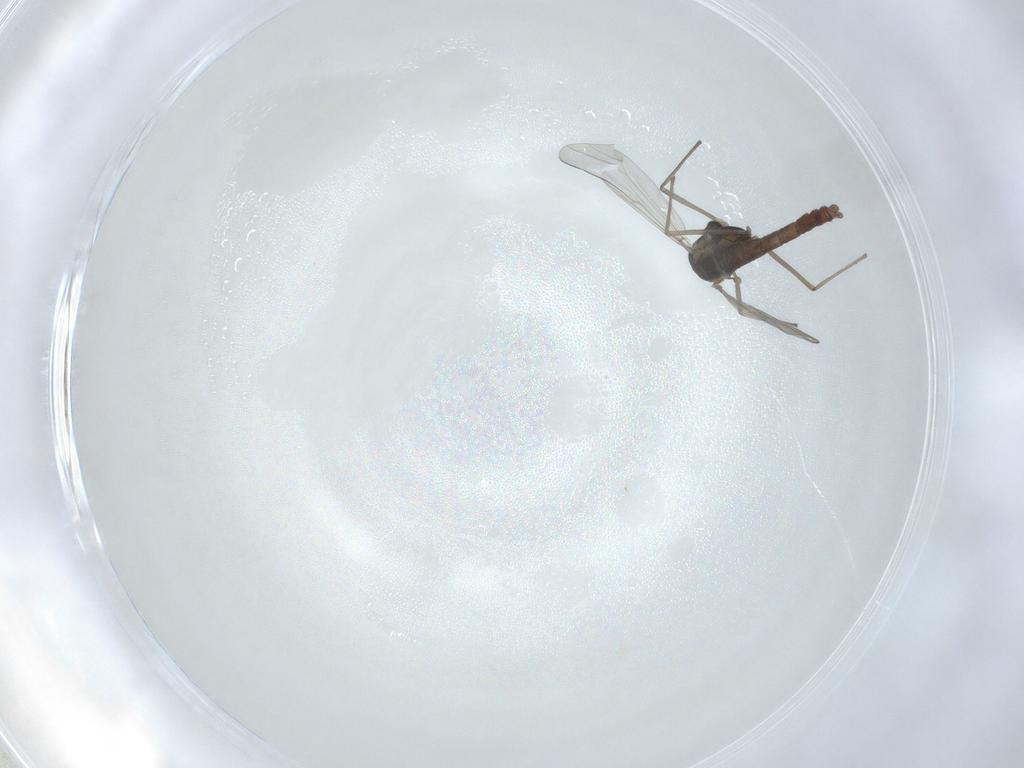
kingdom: Animalia
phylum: Arthropoda
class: Insecta
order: Diptera
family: Chironomidae
